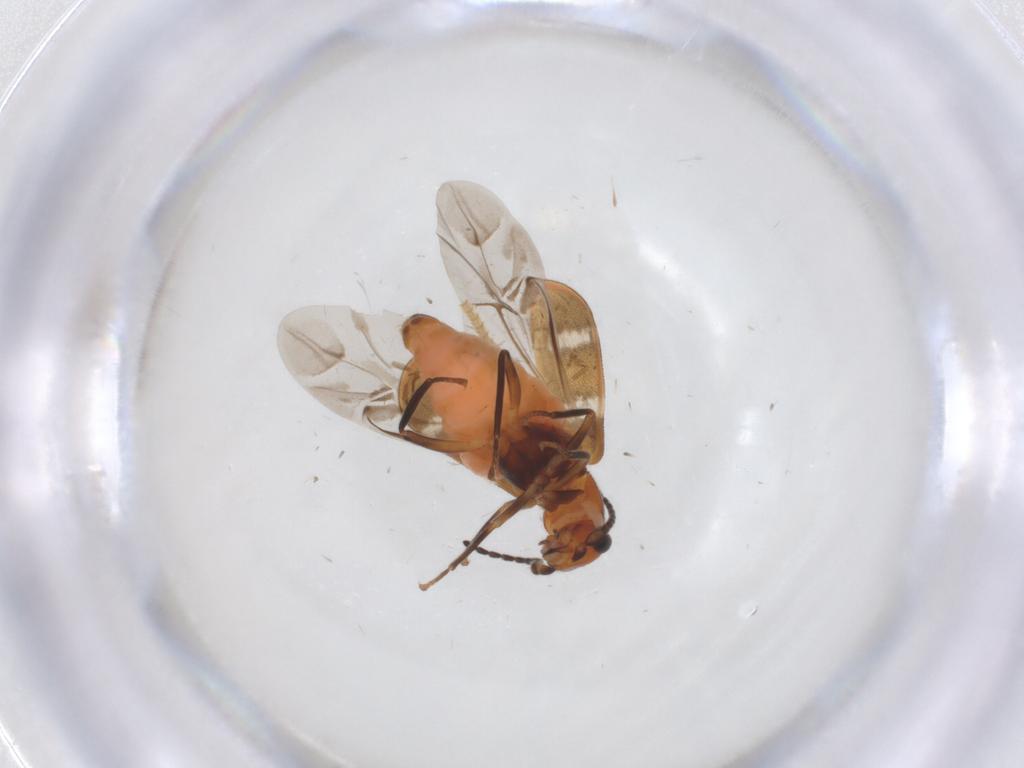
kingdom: Animalia
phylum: Arthropoda
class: Insecta
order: Coleoptera
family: Melyridae
